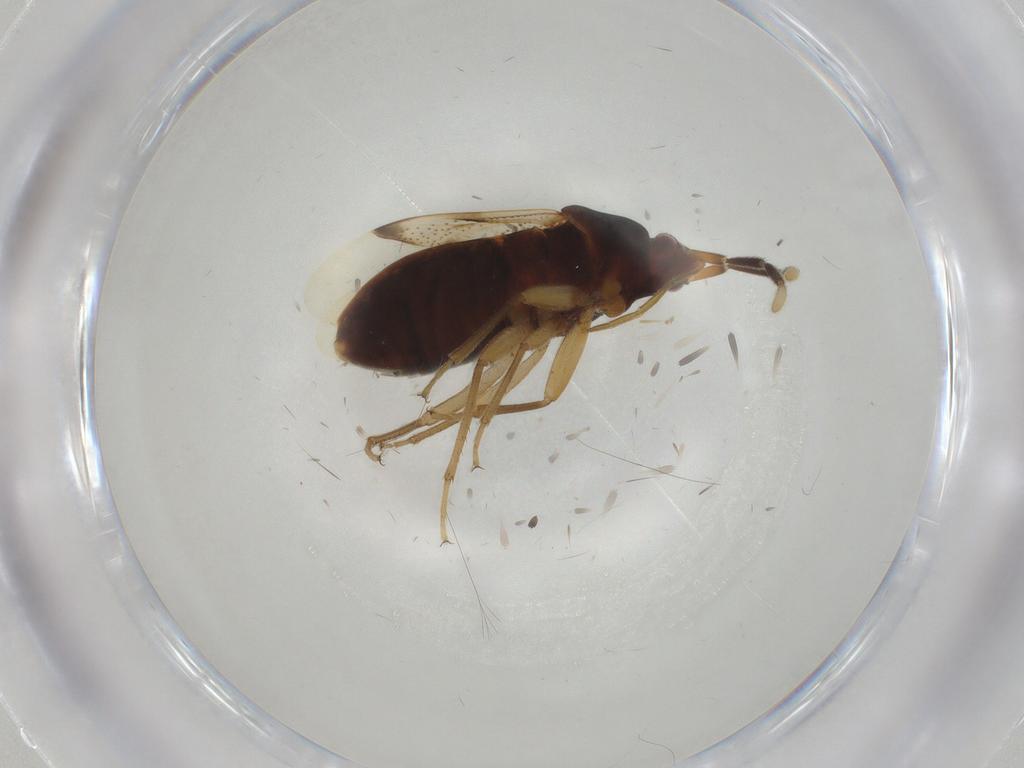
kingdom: Animalia
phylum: Arthropoda
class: Insecta
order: Hemiptera
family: Rhyparochromidae
